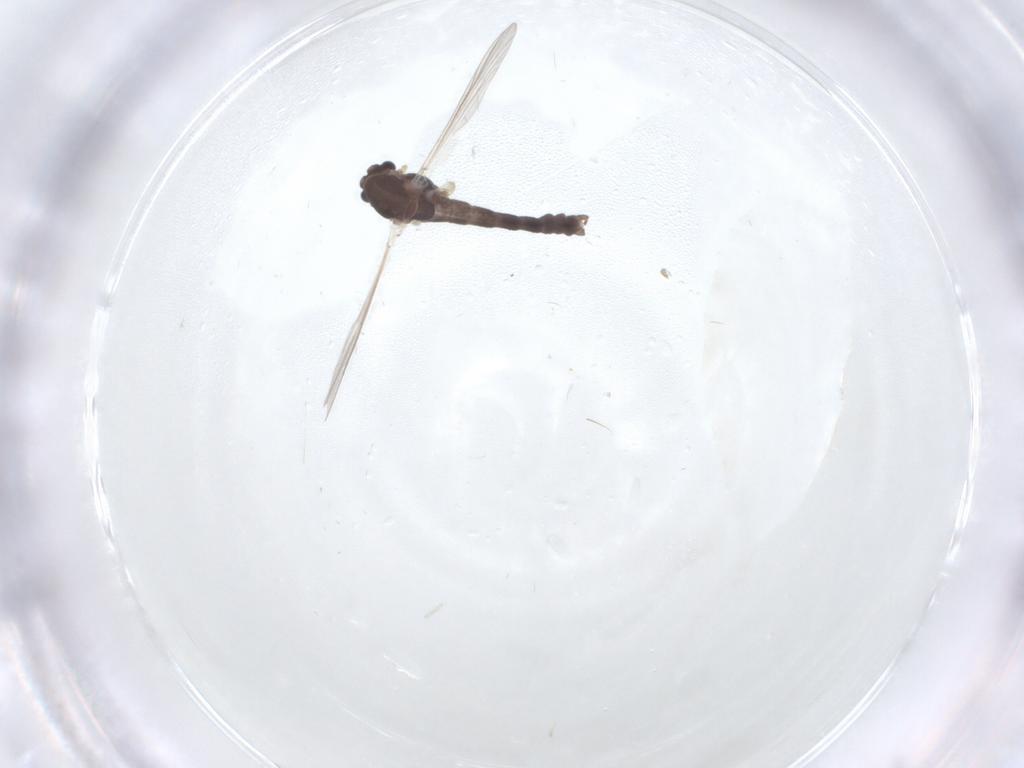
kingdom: Animalia
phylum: Arthropoda
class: Insecta
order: Diptera
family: Chironomidae
